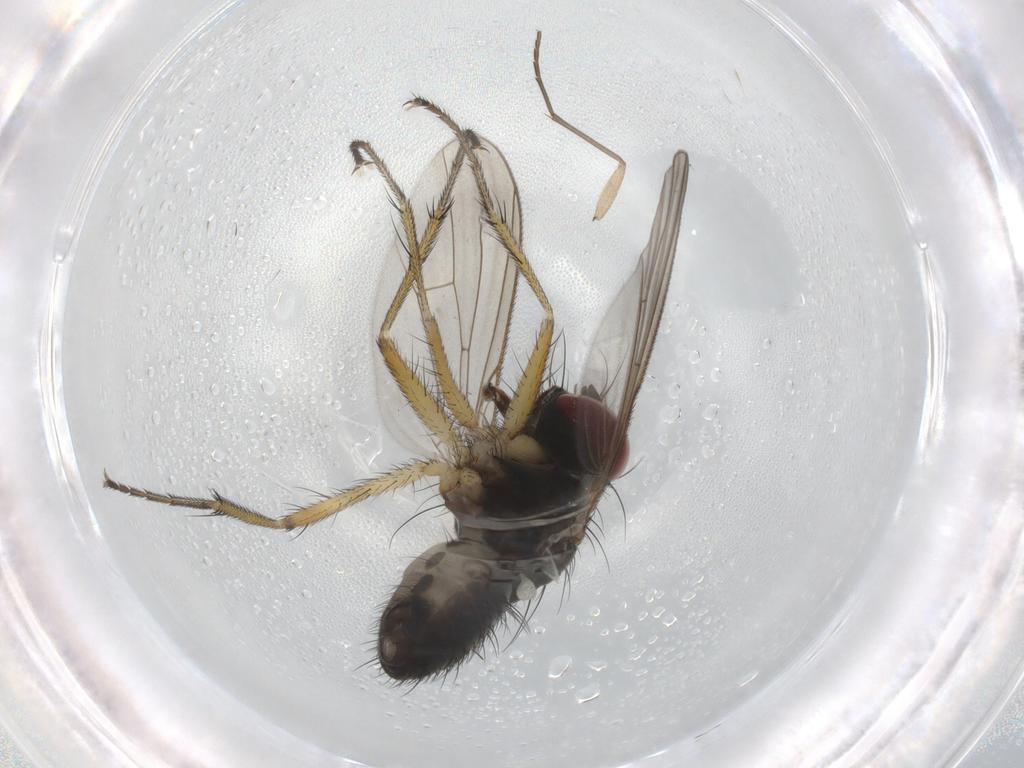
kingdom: Animalia
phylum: Arthropoda
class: Insecta
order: Diptera
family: Muscidae
